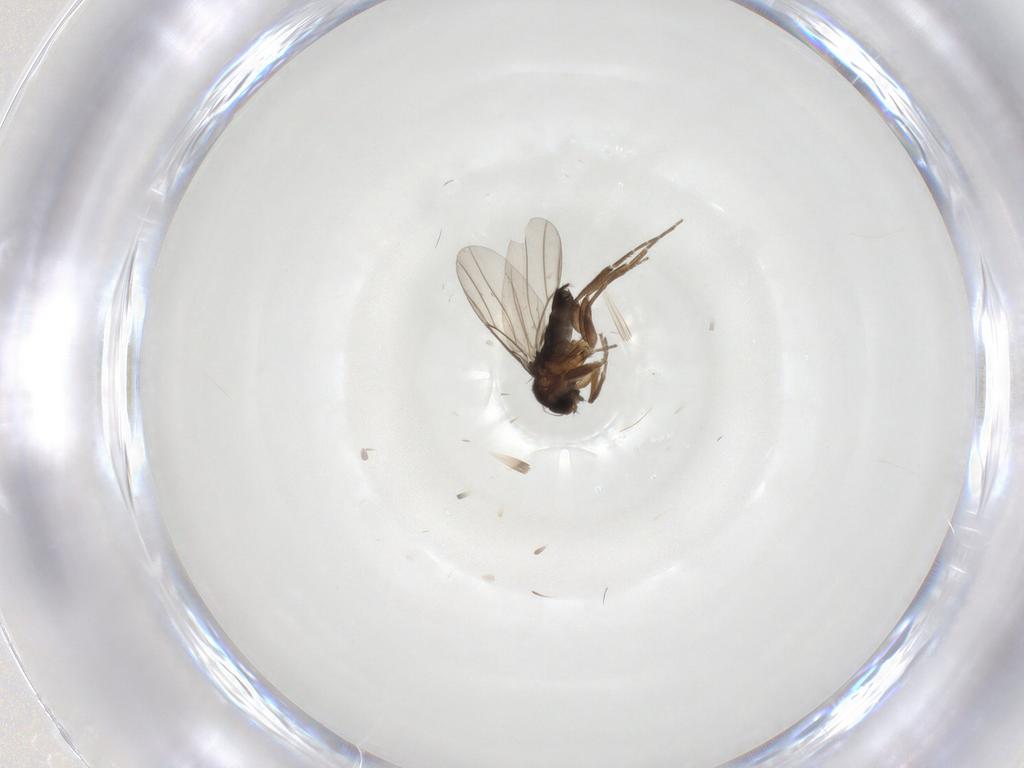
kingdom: Animalia
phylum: Arthropoda
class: Insecta
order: Diptera
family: Phoridae
